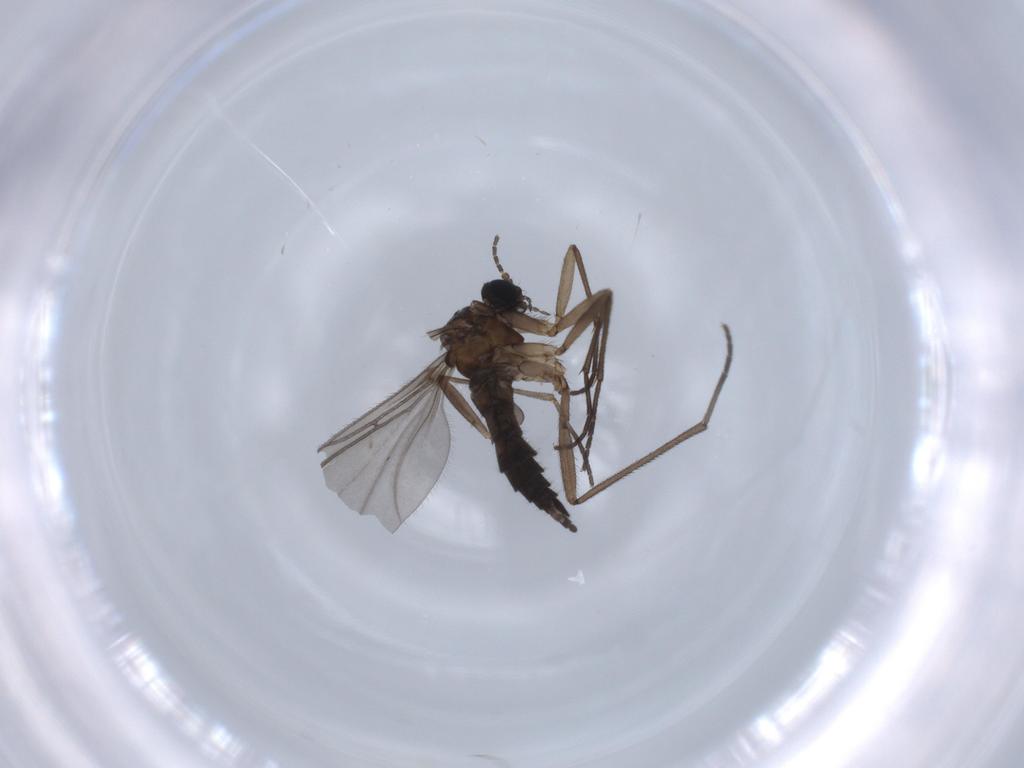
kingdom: Animalia
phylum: Arthropoda
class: Insecta
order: Diptera
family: Sciaridae
